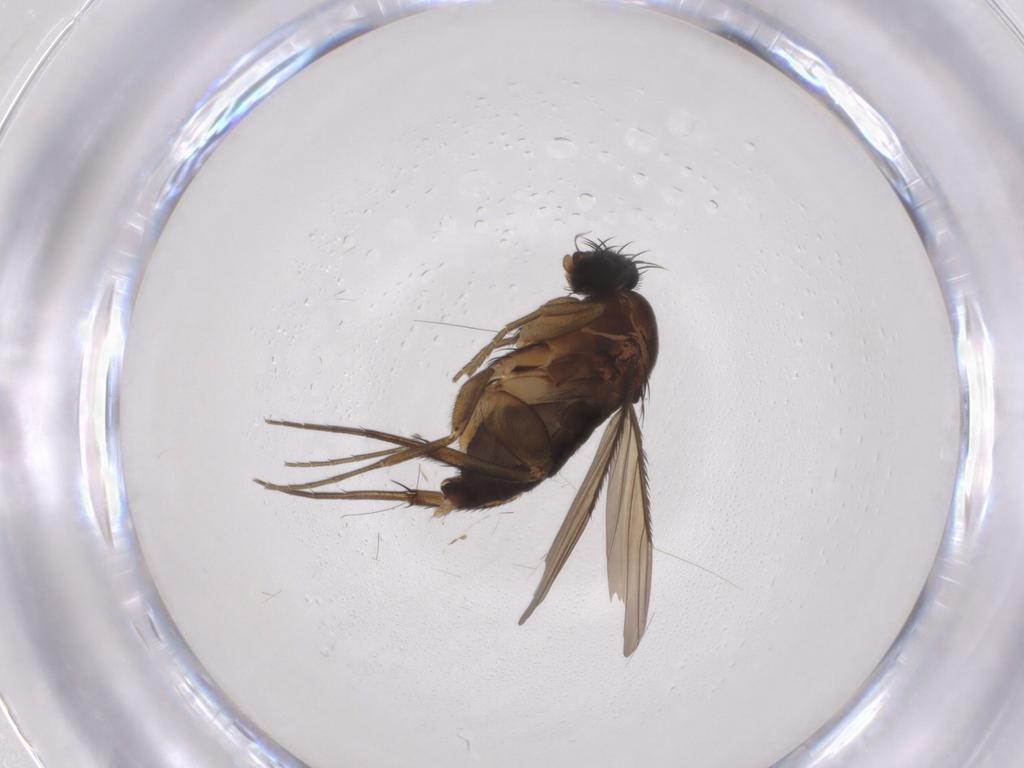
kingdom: Animalia
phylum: Arthropoda
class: Insecta
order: Diptera
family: Phoridae
